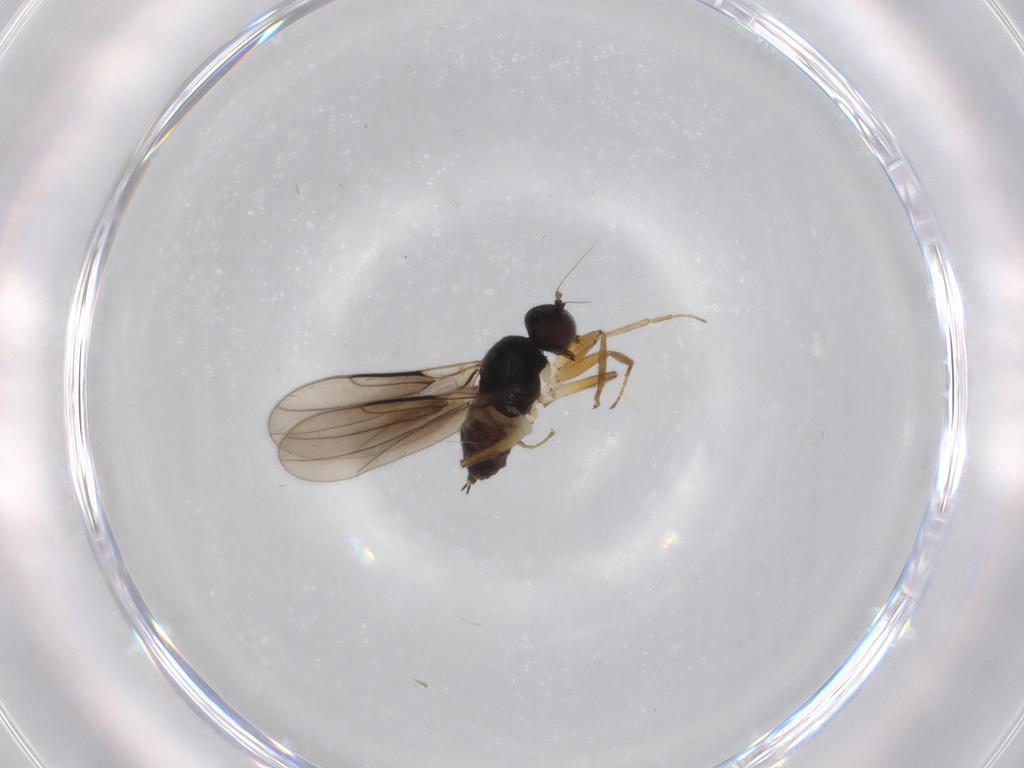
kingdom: Animalia
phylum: Arthropoda
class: Insecta
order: Diptera
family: Hybotidae
